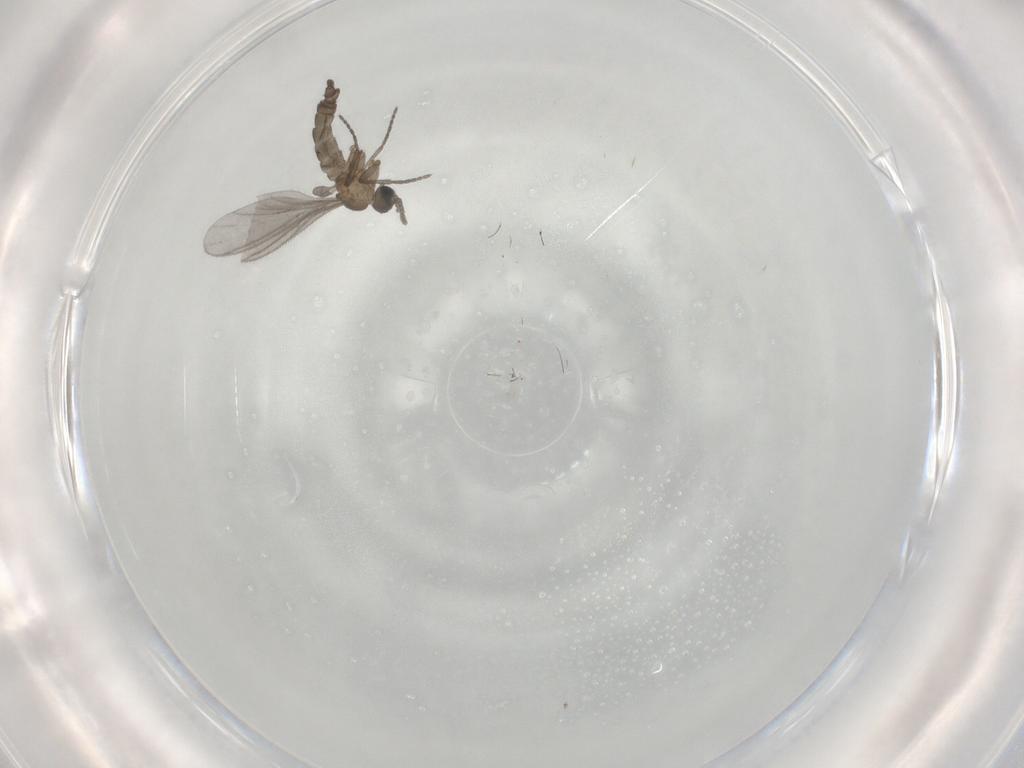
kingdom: Animalia
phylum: Arthropoda
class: Insecta
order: Diptera
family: Sciaridae
